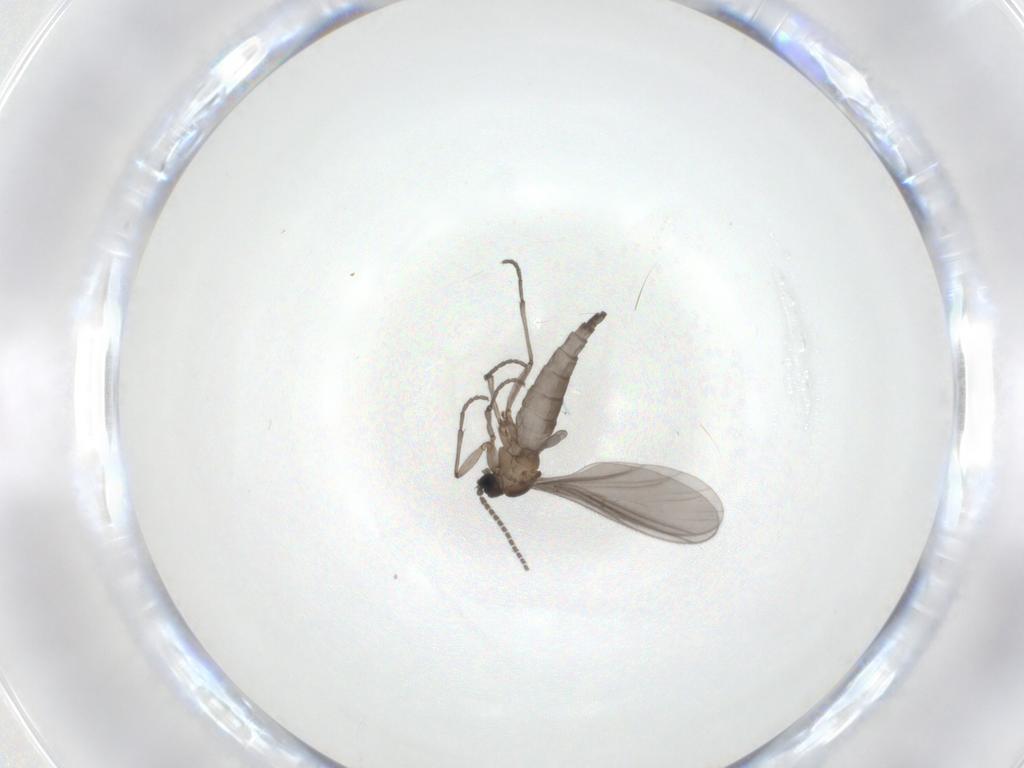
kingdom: Animalia
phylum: Arthropoda
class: Insecta
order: Diptera
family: Sciaridae
